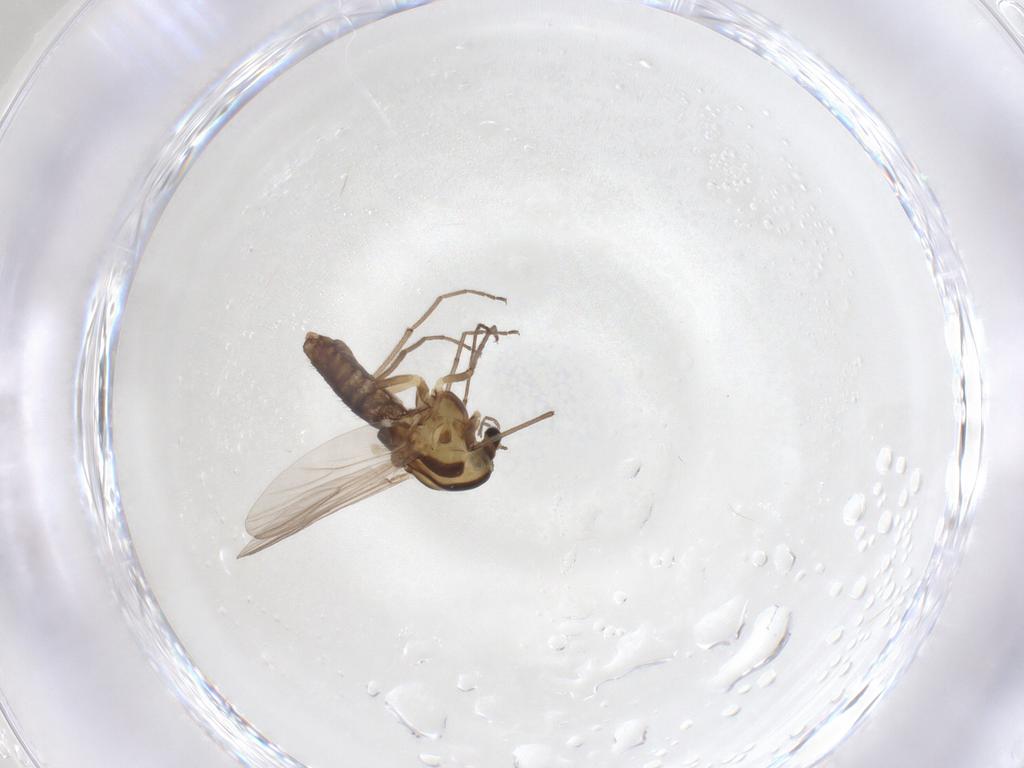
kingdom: Animalia
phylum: Arthropoda
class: Insecta
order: Diptera
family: Chironomidae
